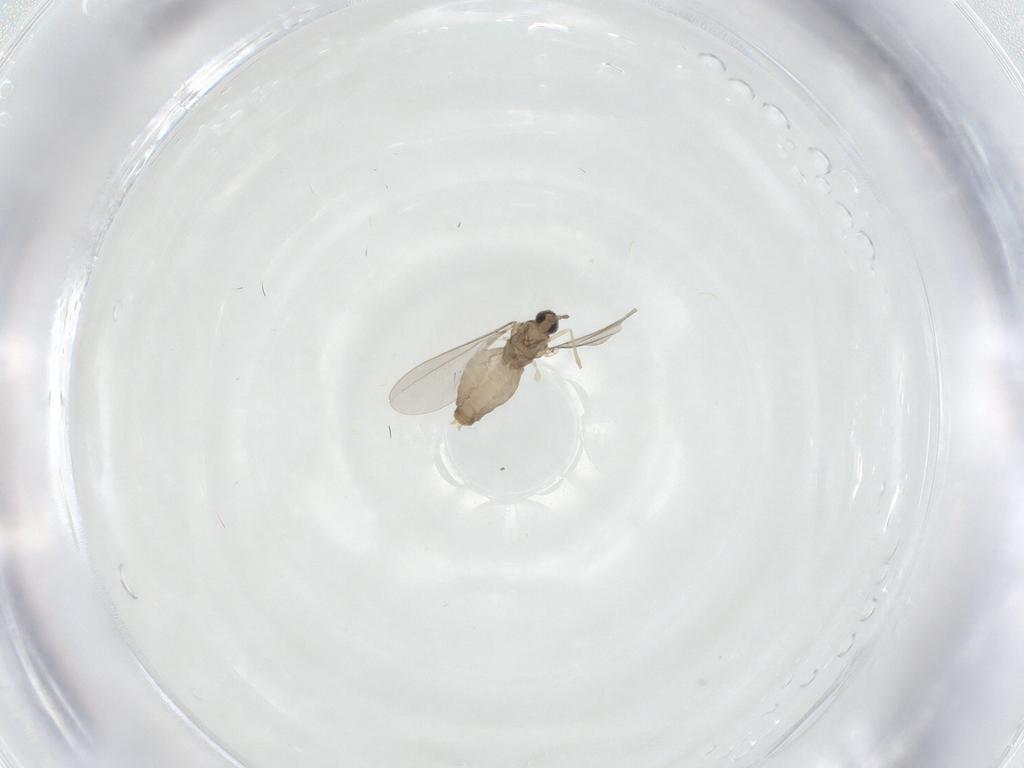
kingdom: Animalia
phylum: Arthropoda
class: Insecta
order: Diptera
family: Cecidomyiidae
